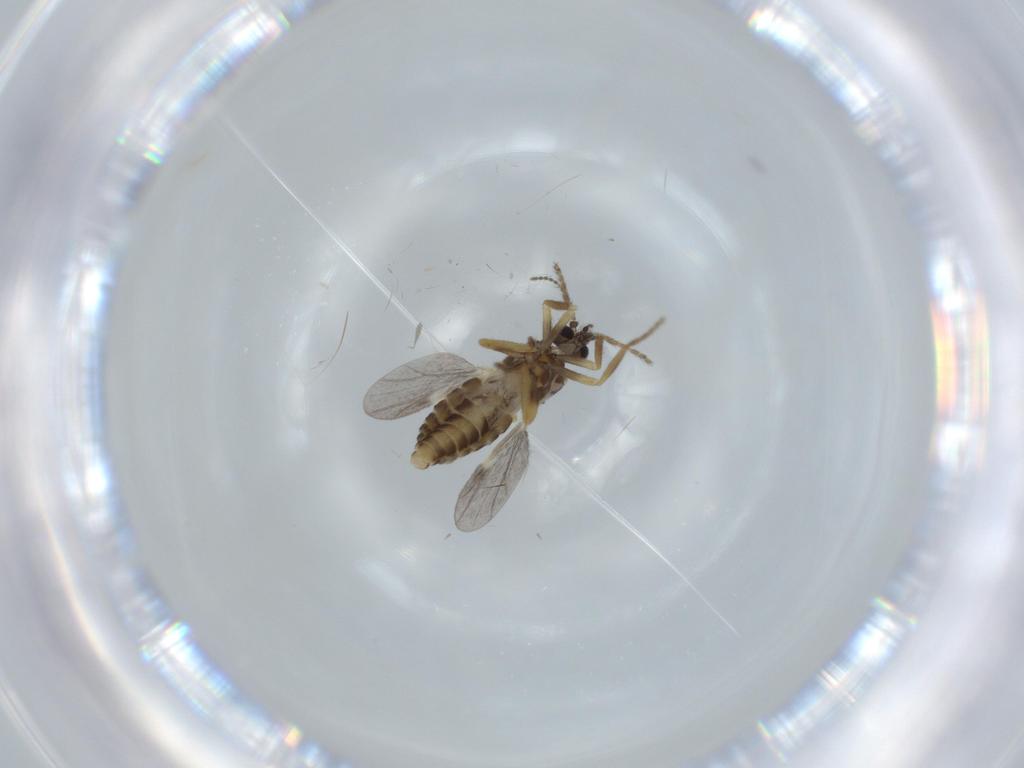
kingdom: Animalia
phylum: Arthropoda
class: Insecta
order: Diptera
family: Ceratopogonidae
